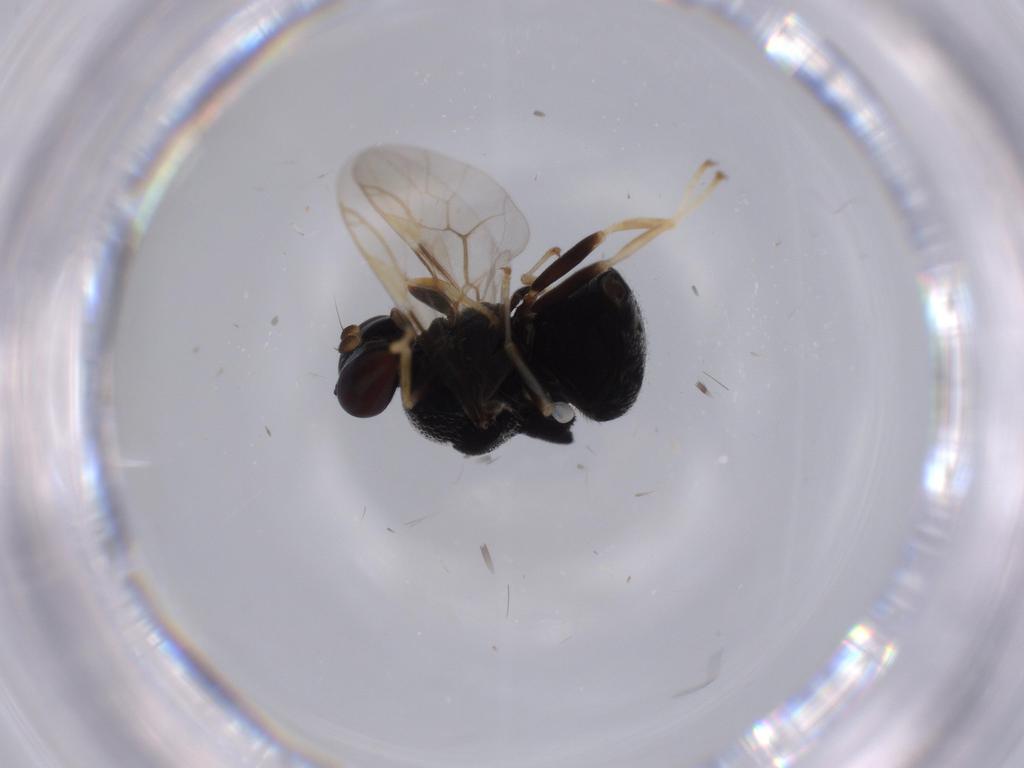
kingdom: Animalia
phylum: Arthropoda
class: Insecta
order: Diptera
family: Stratiomyidae
